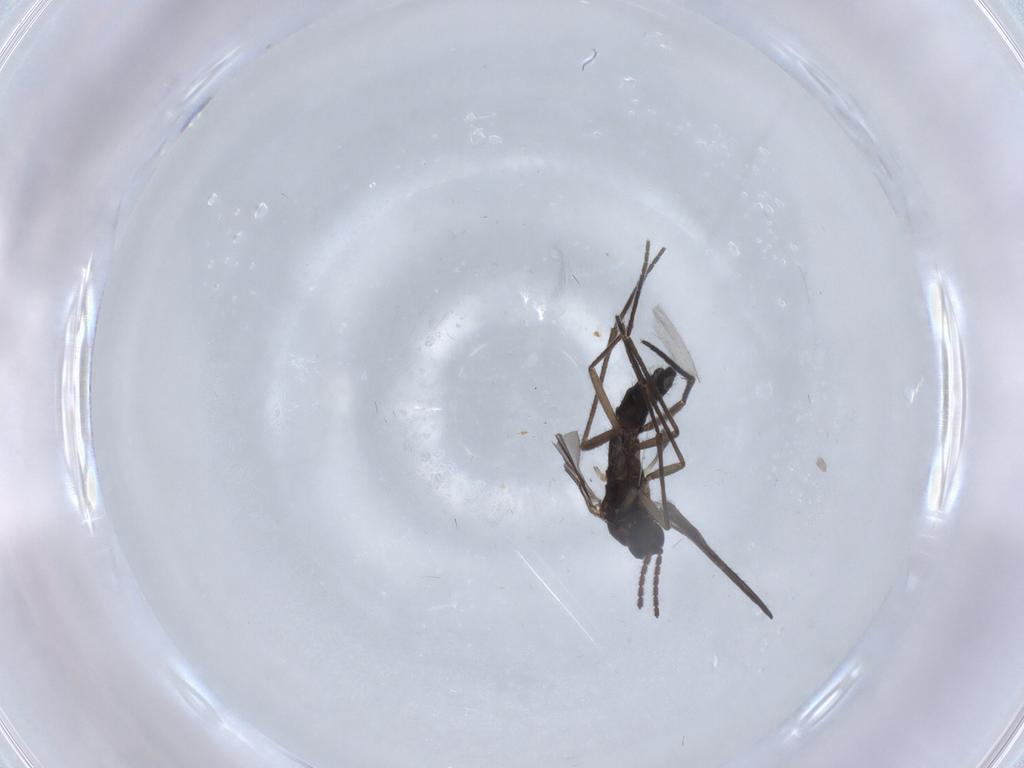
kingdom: Animalia
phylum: Arthropoda
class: Insecta
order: Diptera
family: Sciaridae
